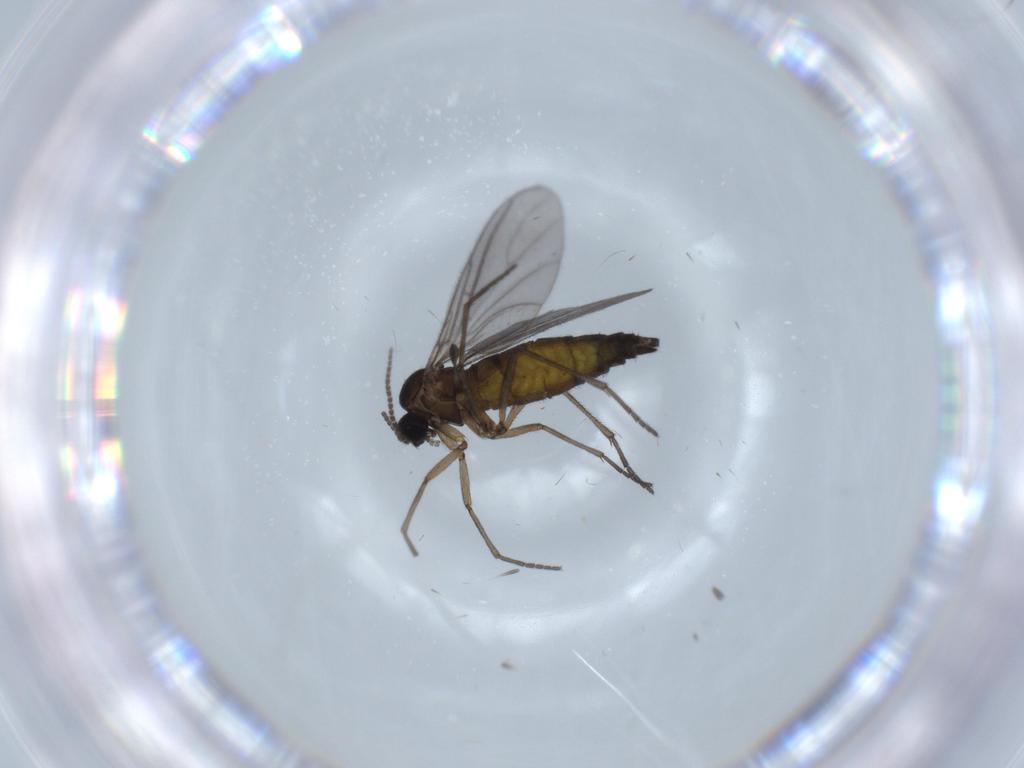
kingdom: Animalia
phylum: Arthropoda
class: Insecta
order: Diptera
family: Sciaridae
